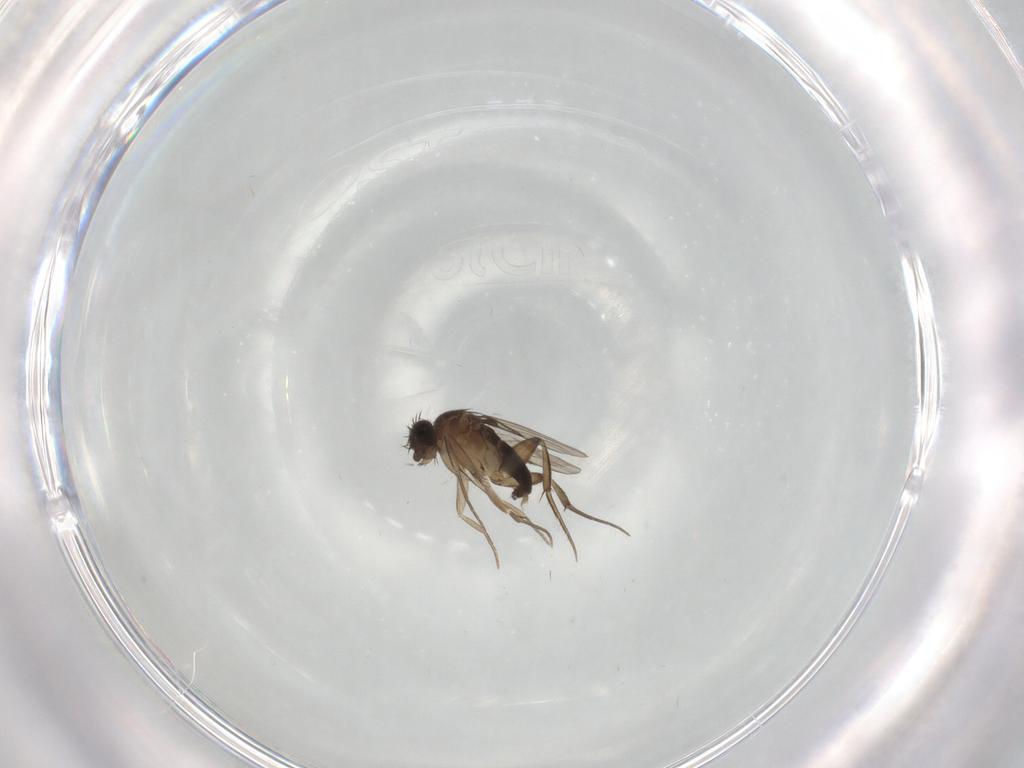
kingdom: Animalia
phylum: Arthropoda
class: Insecta
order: Diptera
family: Phoridae
